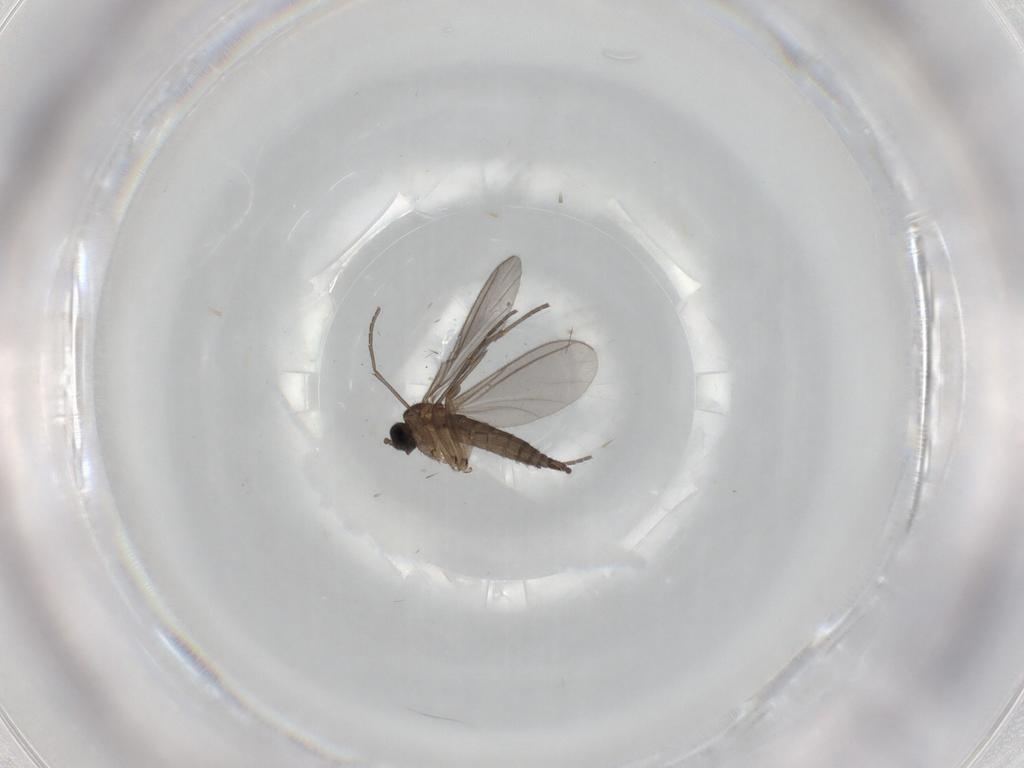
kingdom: Animalia
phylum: Arthropoda
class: Insecta
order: Diptera
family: Sciaridae
